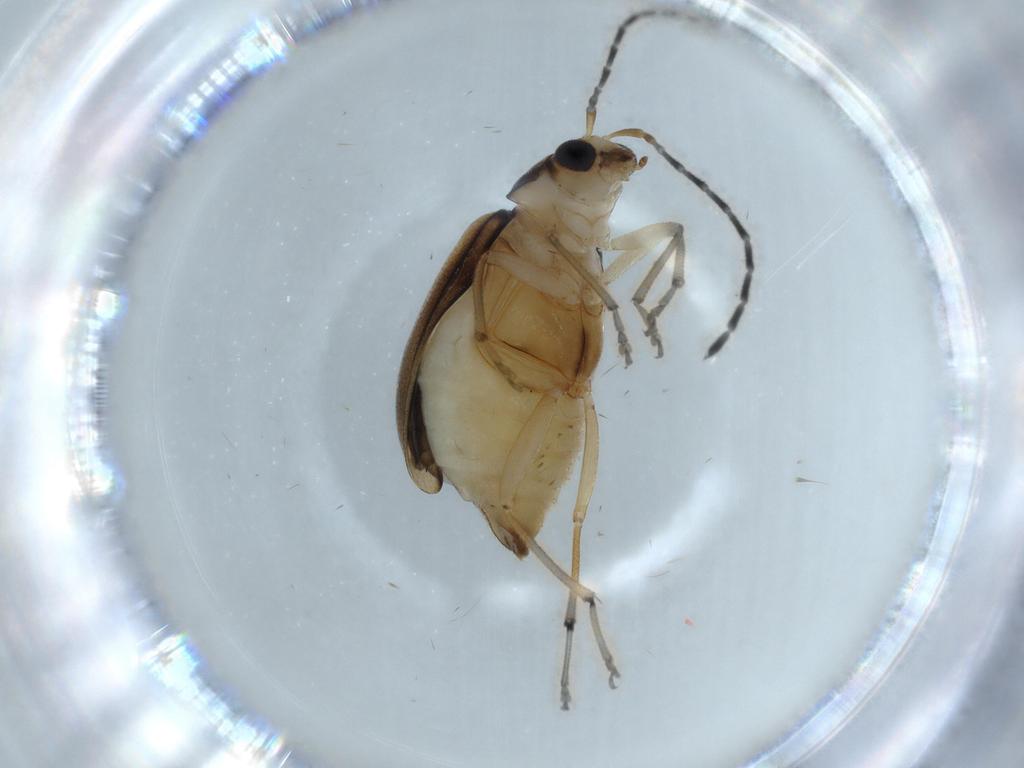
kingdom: Animalia
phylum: Arthropoda
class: Insecta
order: Coleoptera
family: Chrysomelidae
